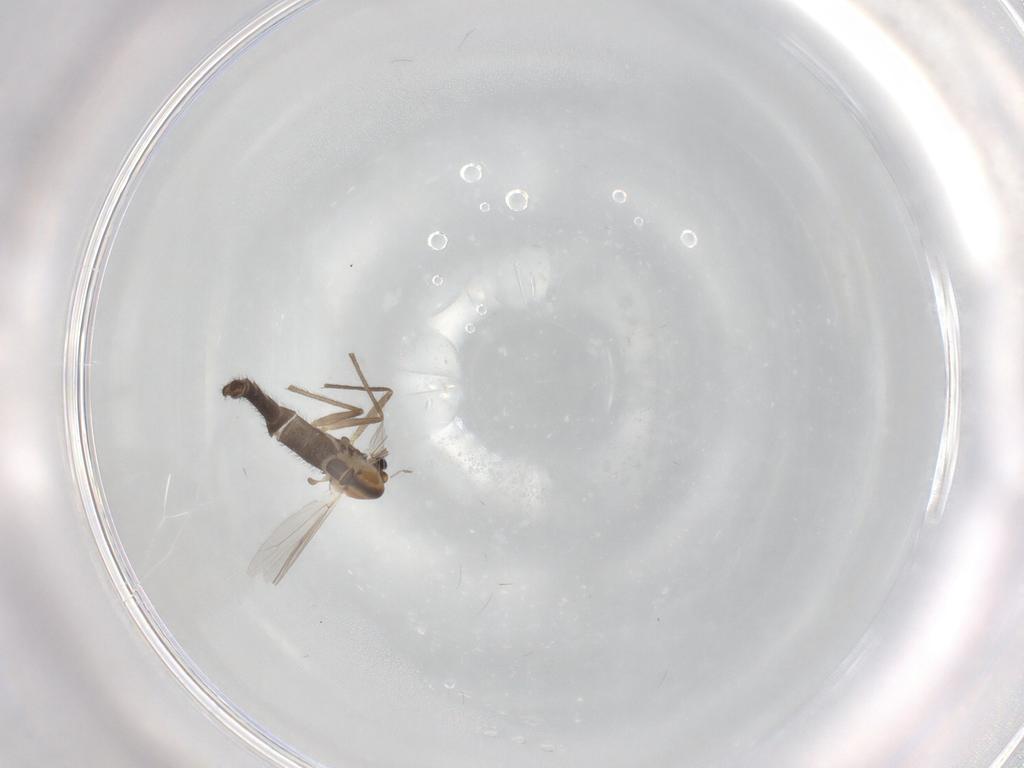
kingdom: Animalia
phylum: Arthropoda
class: Insecta
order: Diptera
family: Chironomidae
